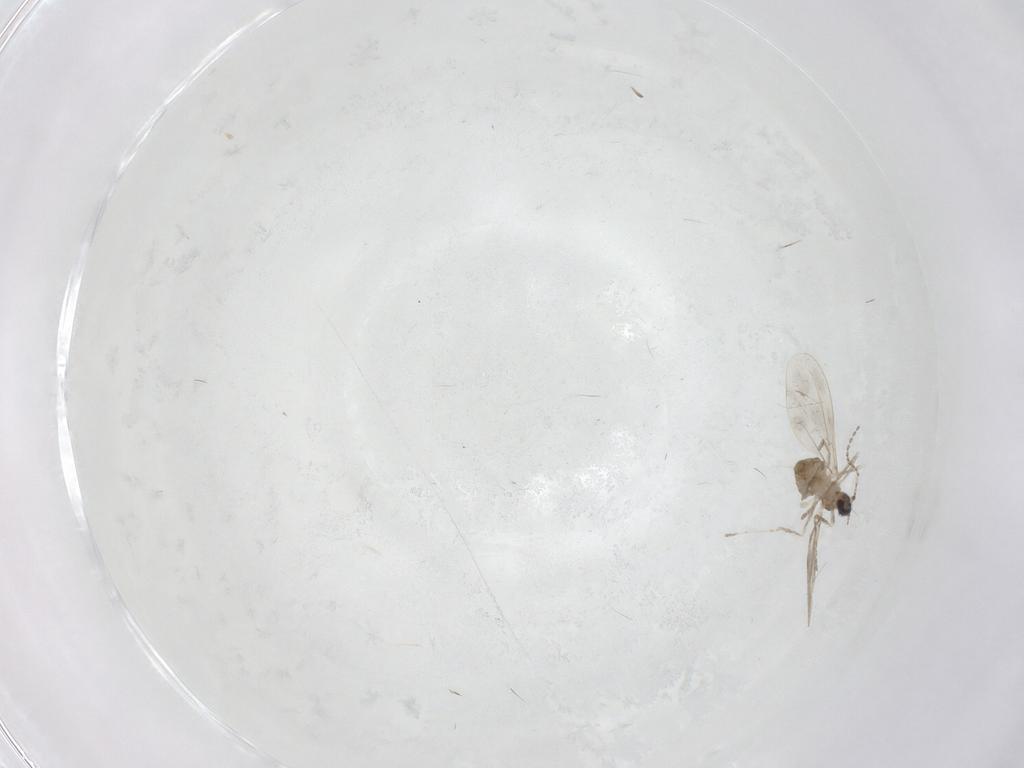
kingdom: Animalia
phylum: Arthropoda
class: Insecta
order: Diptera
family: Cecidomyiidae
